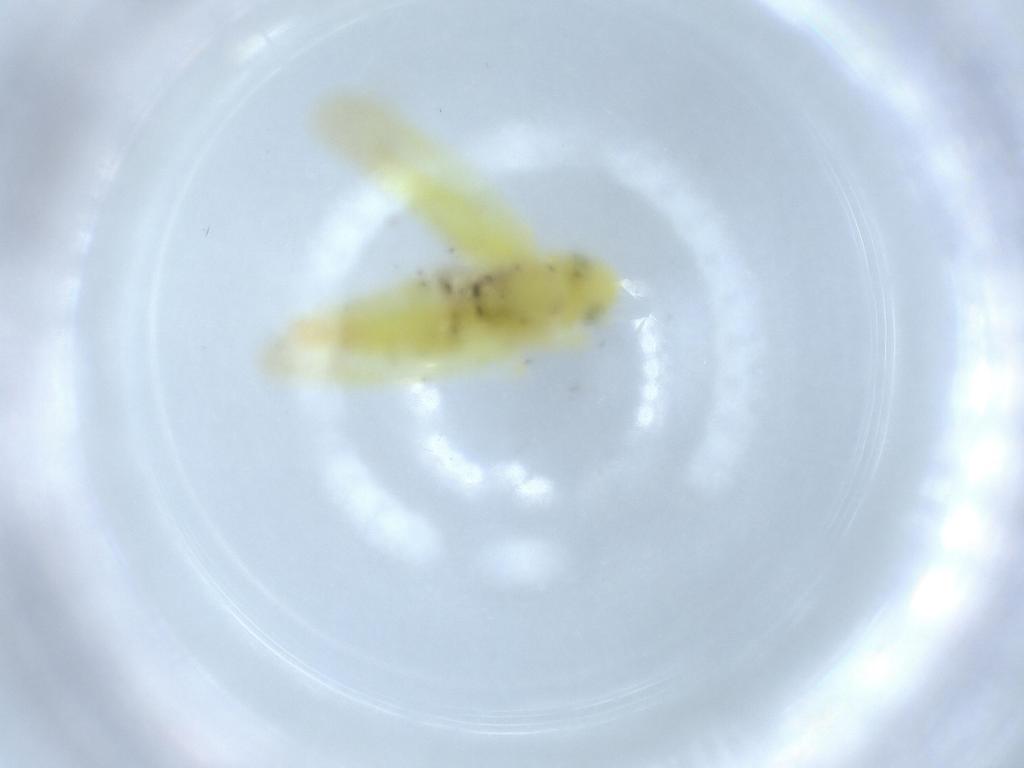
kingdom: Animalia
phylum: Arthropoda
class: Insecta
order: Hemiptera
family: Cicadellidae
